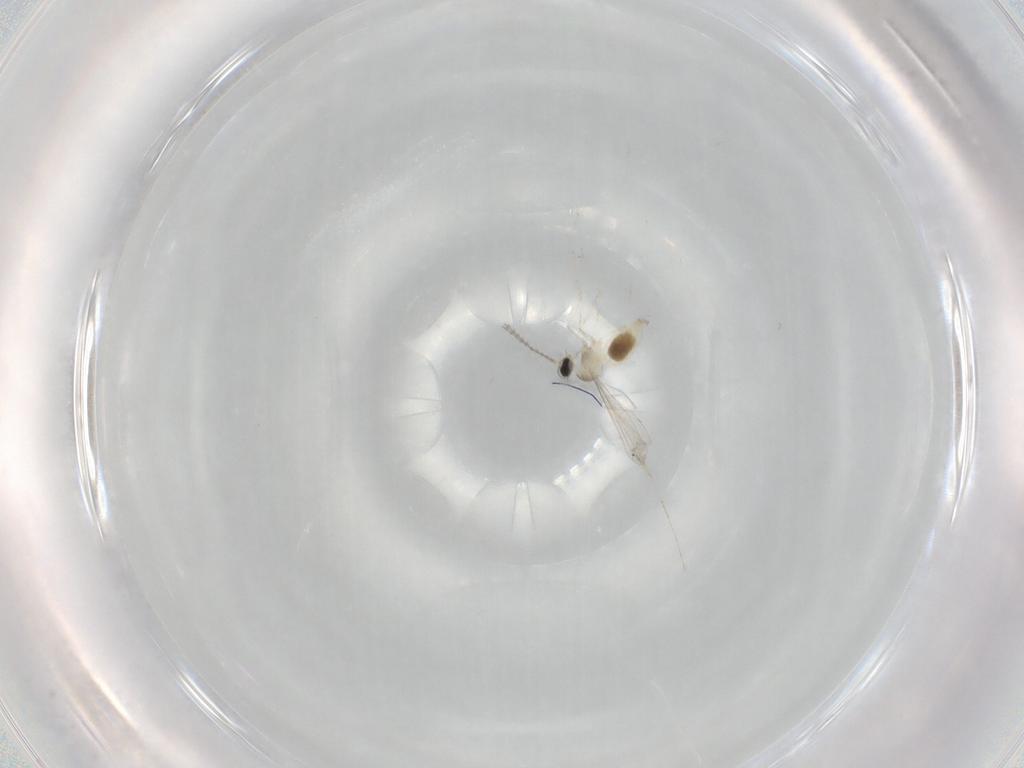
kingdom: Animalia
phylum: Arthropoda
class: Insecta
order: Diptera
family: Cecidomyiidae
